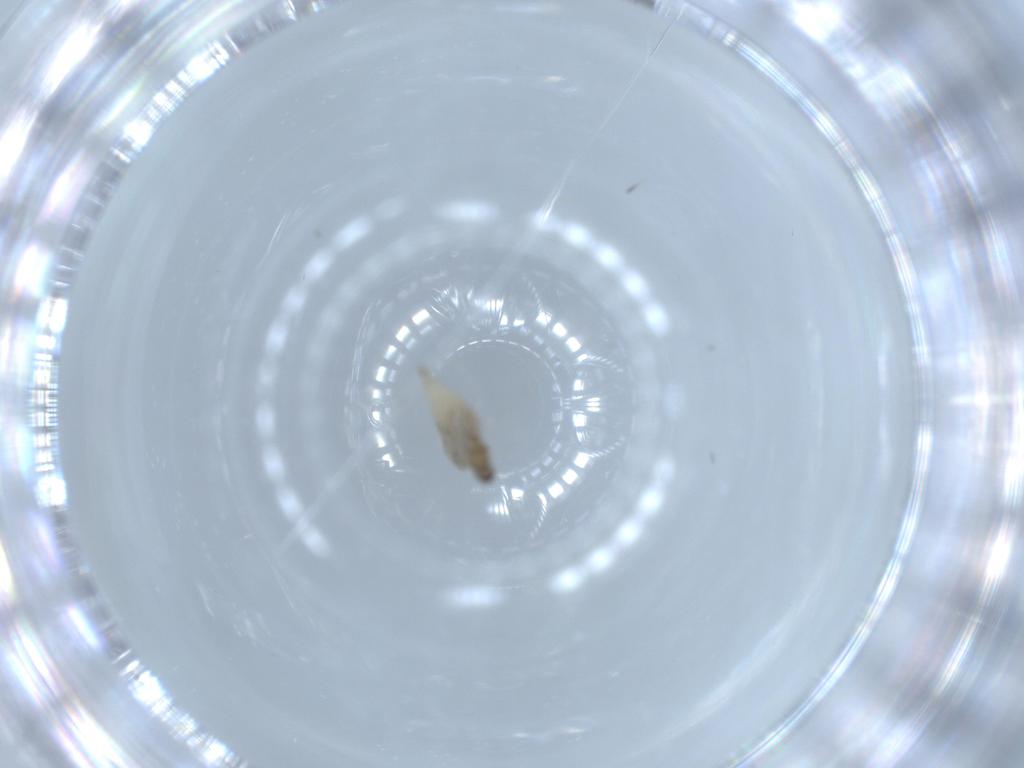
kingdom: Animalia
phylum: Arthropoda
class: Insecta
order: Diptera
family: Cecidomyiidae
